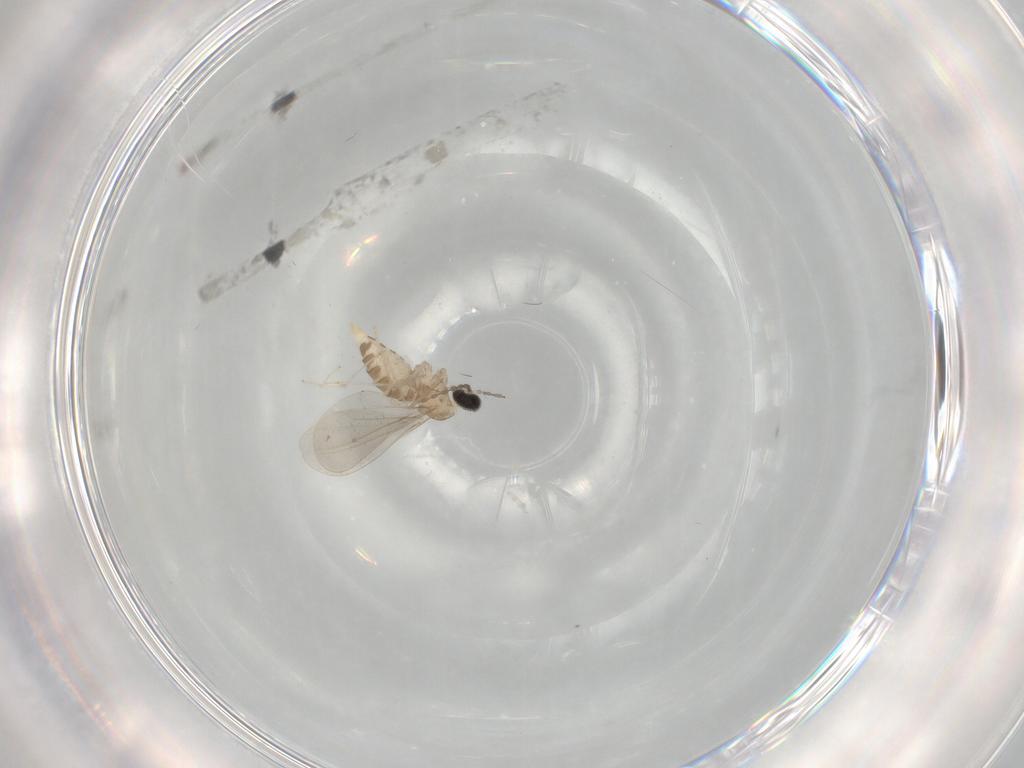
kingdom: Animalia
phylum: Arthropoda
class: Insecta
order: Diptera
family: Cecidomyiidae
